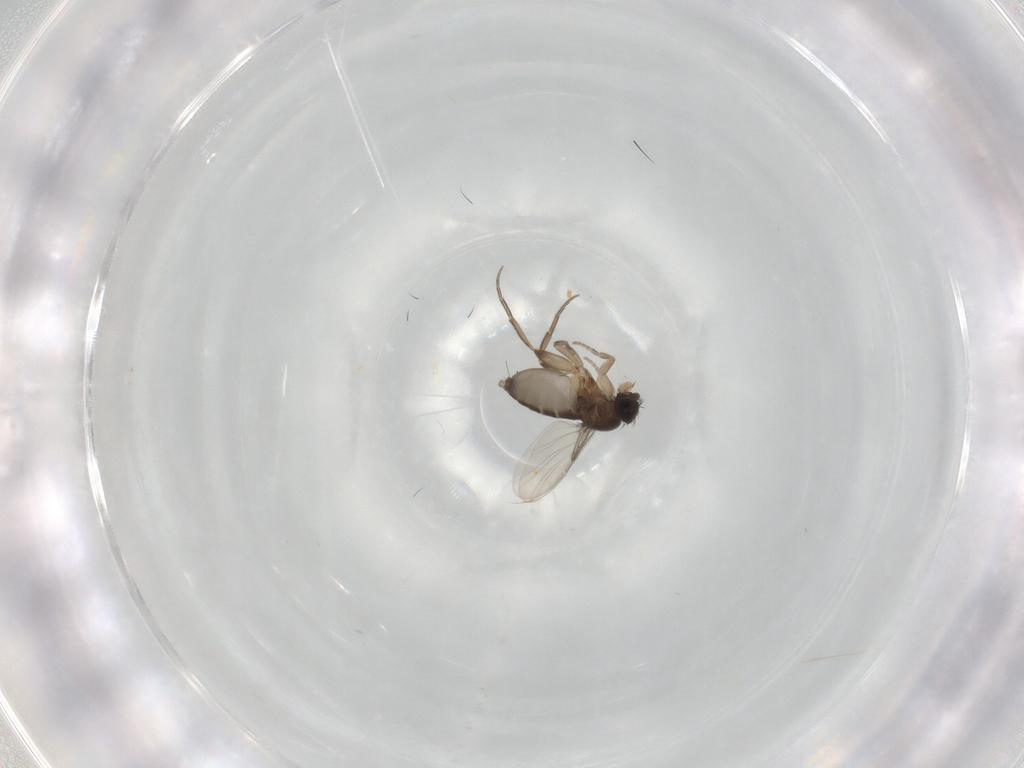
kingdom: Animalia
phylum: Arthropoda
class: Insecta
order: Diptera
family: Phoridae
